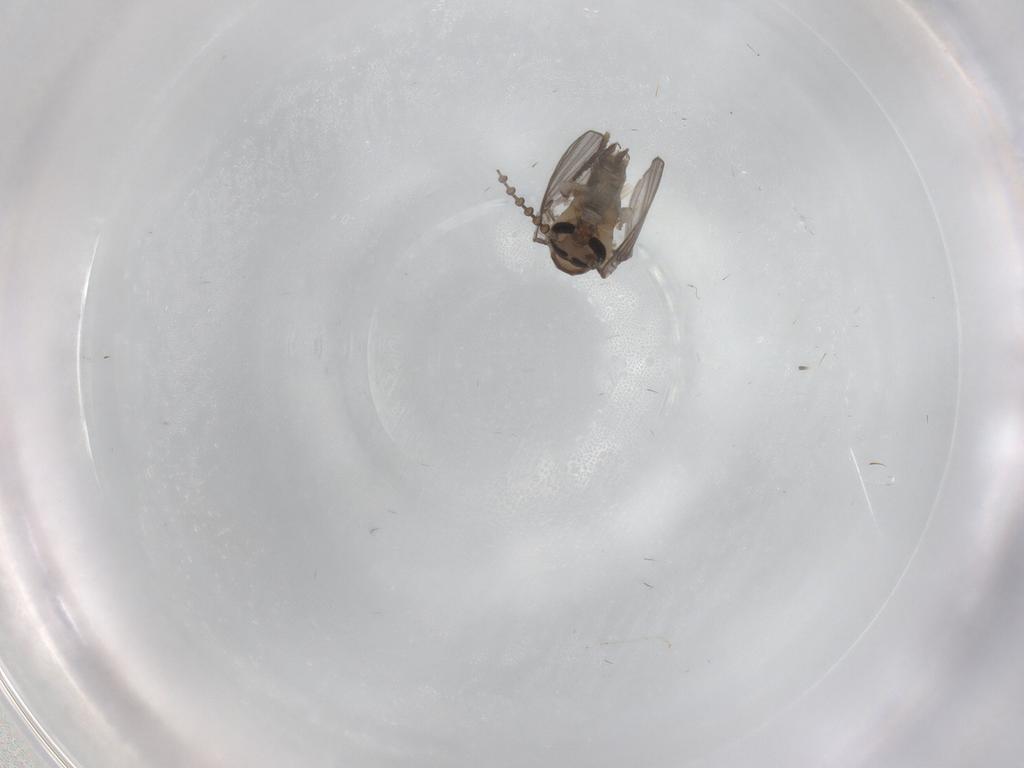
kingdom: Animalia
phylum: Arthropoda
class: Insecta
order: Diptera
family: Psychodidae
